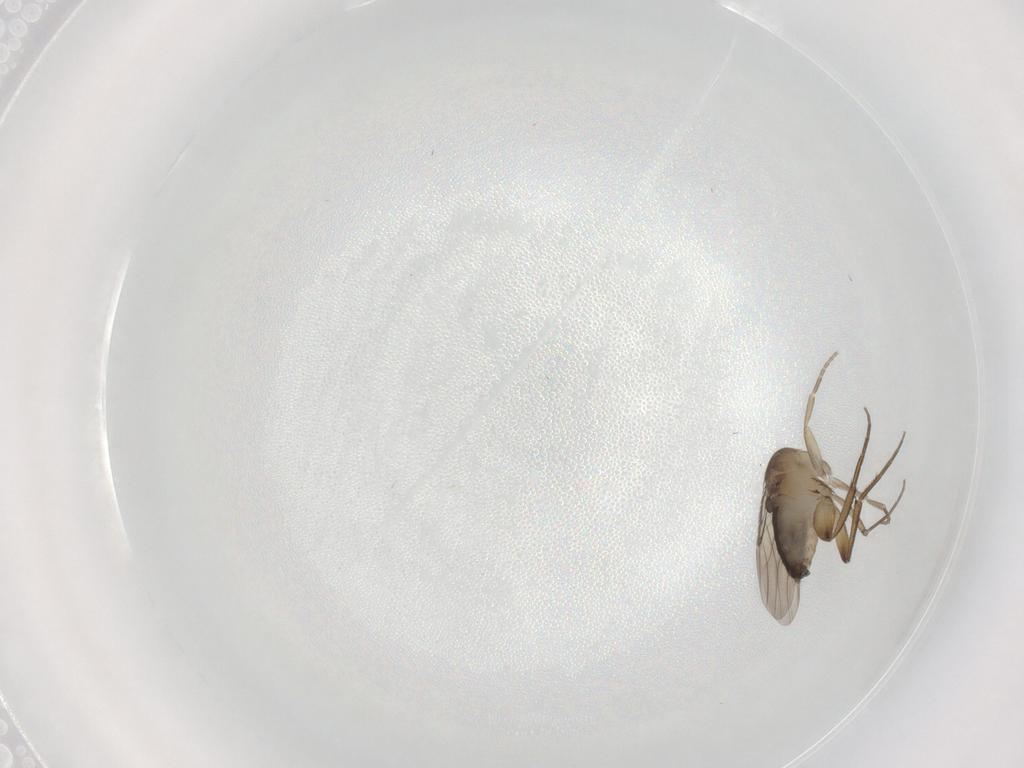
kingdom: Animalia
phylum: Arthropoda
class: Insecta
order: Diptera
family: Phoridae
